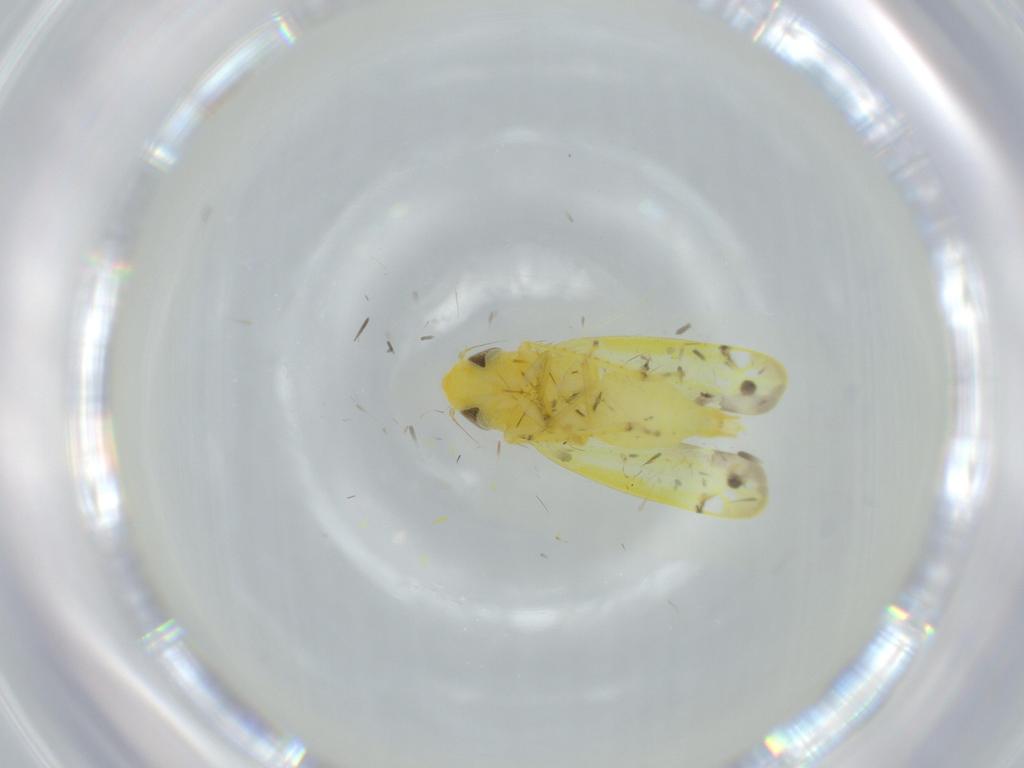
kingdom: Animalia
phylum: Arthropoda
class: Insecta
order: Hemiptera
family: Cicadellidae
